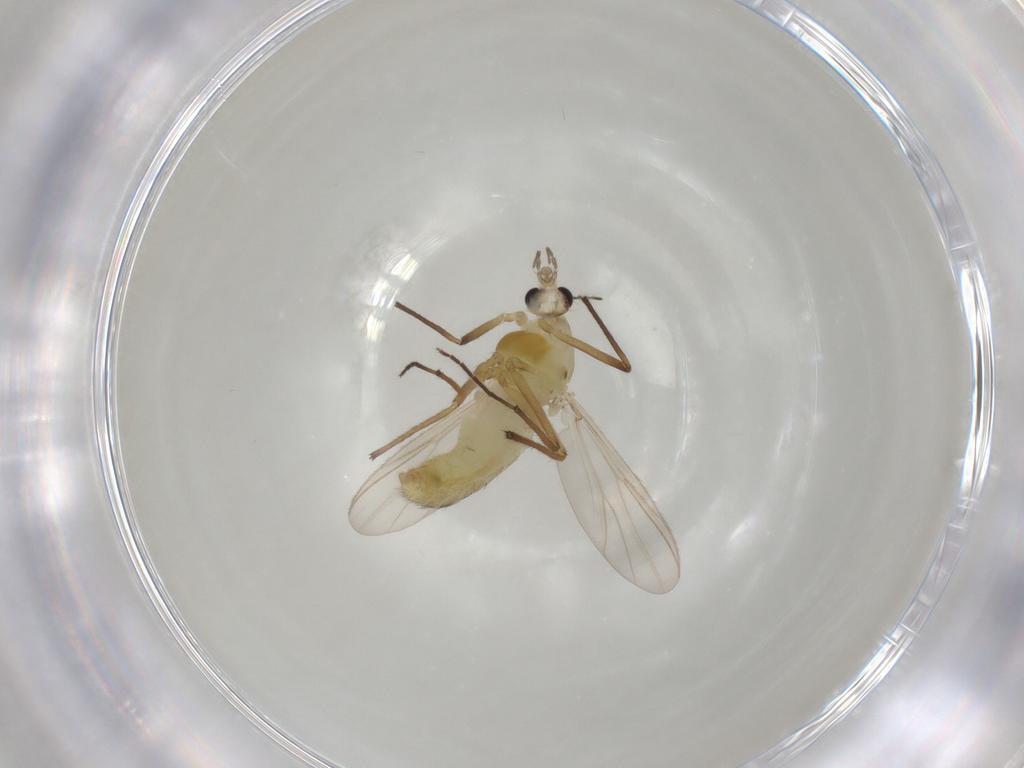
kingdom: Animalia
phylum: Arthropoda
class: Insecta
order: Diptera
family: Chironomidae
